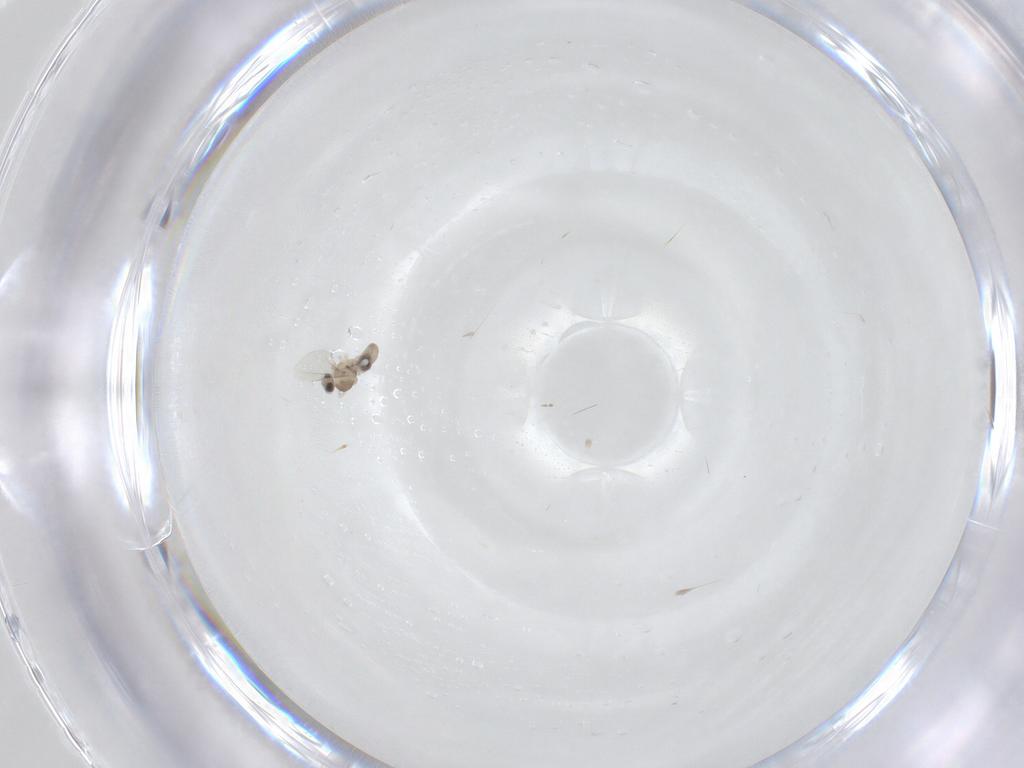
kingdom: Animalia
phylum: Arthropoda
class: Insecta
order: Diptera
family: Cecidomyiidae
